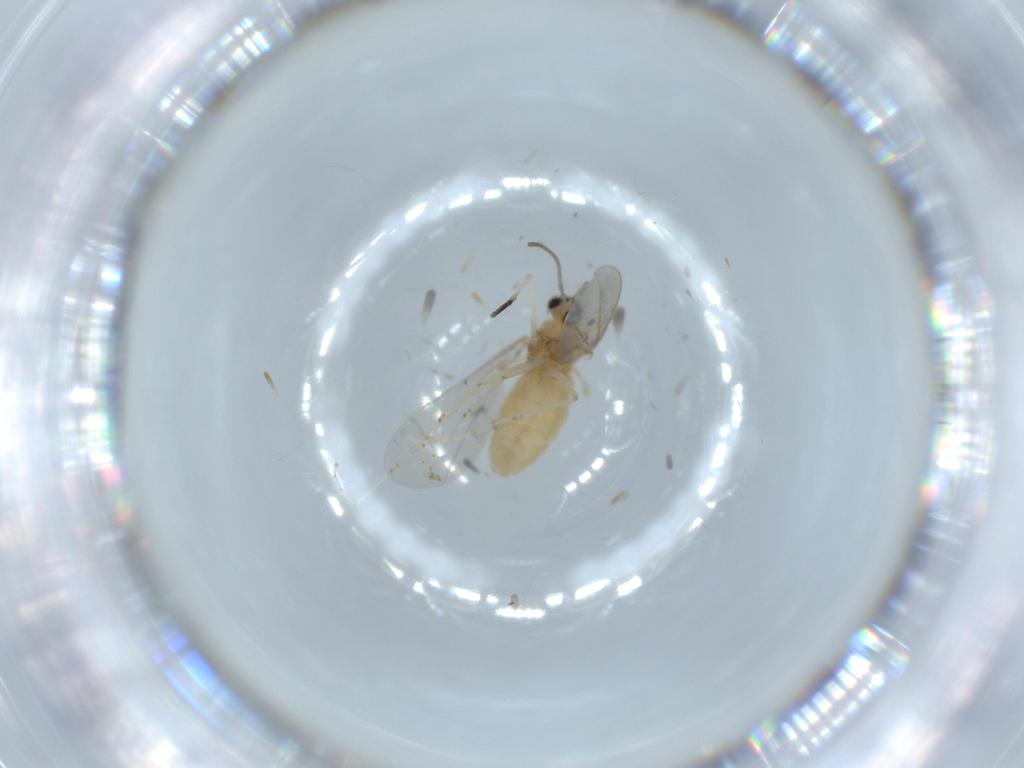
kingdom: Animalia
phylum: Arthropoda
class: Insecta
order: Diptera
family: Cecidomyiidae
